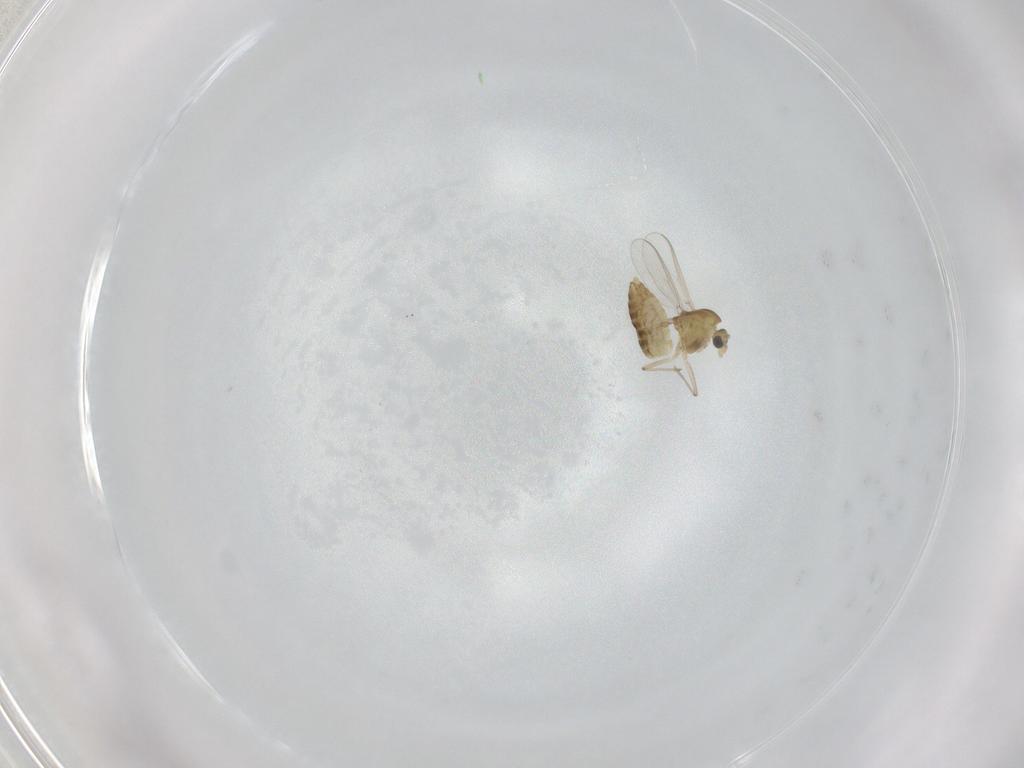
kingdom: Animalia
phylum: Arthropoda
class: Insecta
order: Diptera
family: Chironomidae
